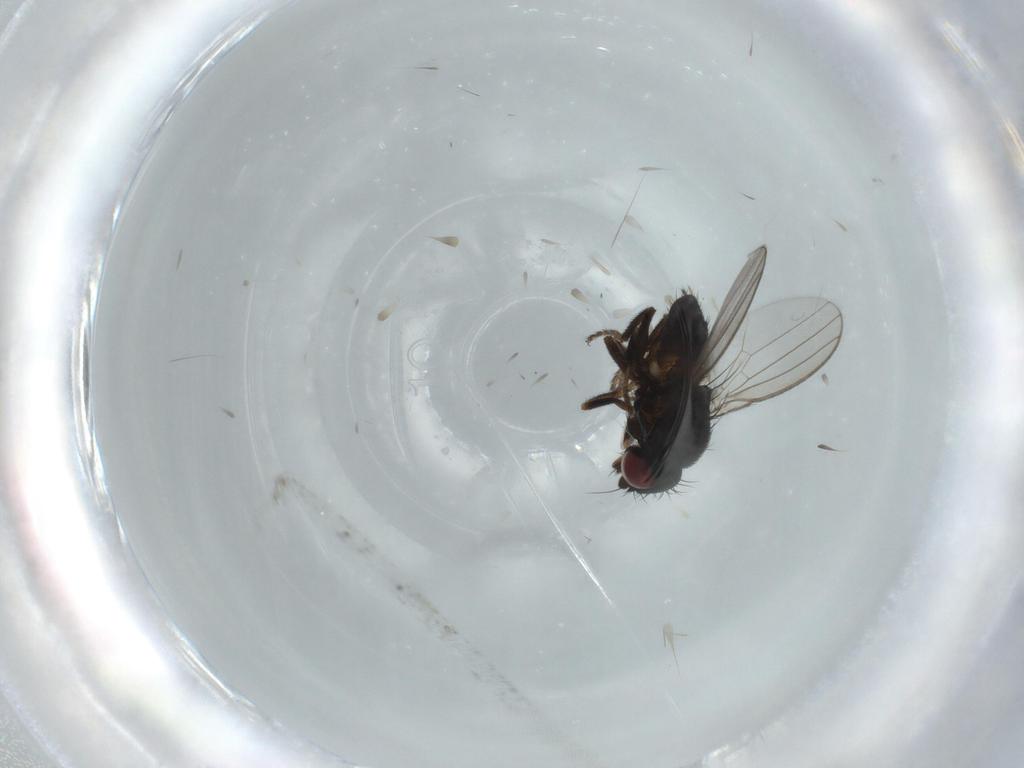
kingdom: Animalia
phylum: Arthropoda
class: Insecta
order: Diptera
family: Milichiidae
